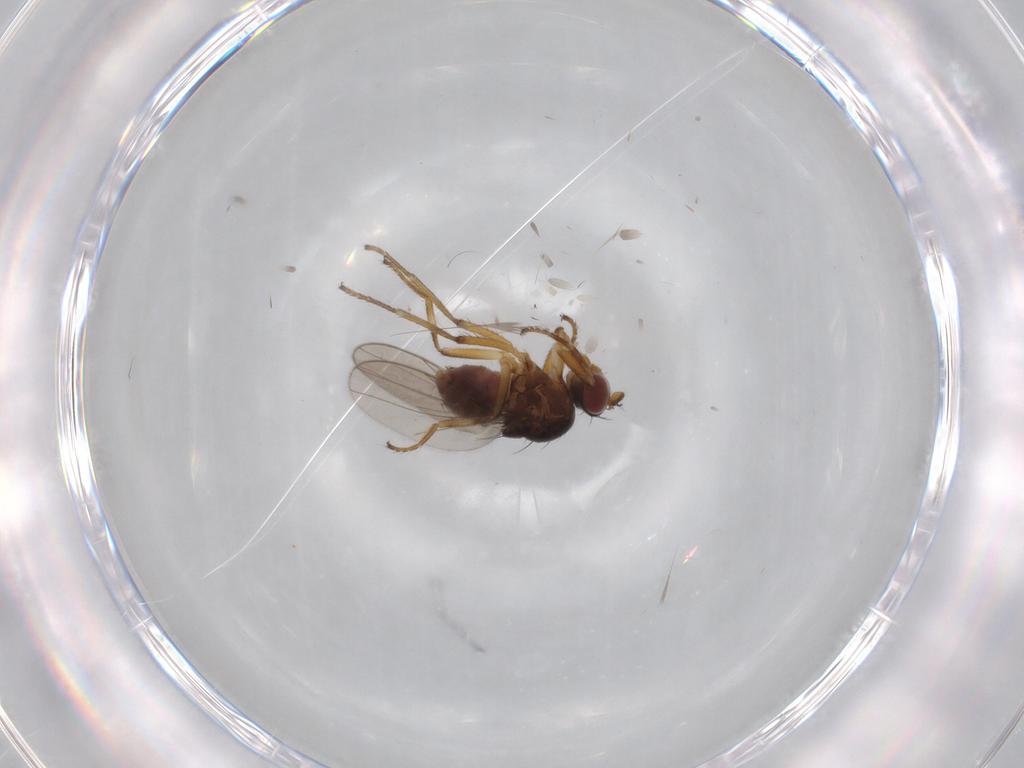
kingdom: Animalia
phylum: Arthropoda
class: Insecta
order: Diptera
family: Ephydridae
